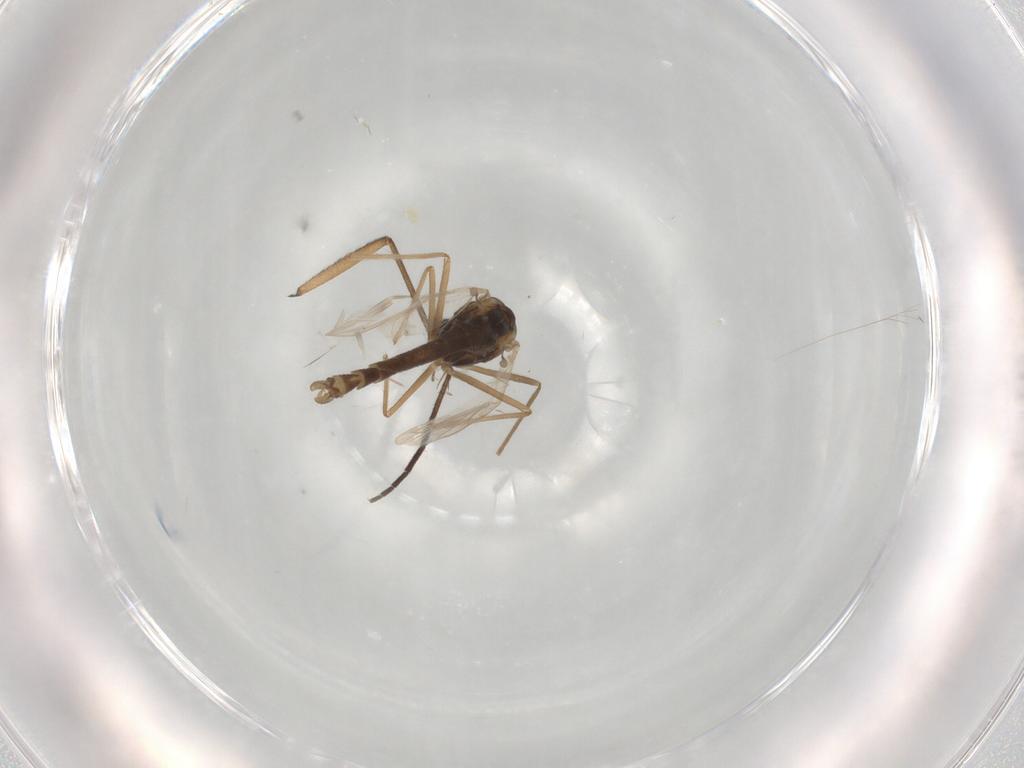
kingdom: Animalia
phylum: Arthropoda
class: Insecta
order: Diptera
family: Chironomidae
